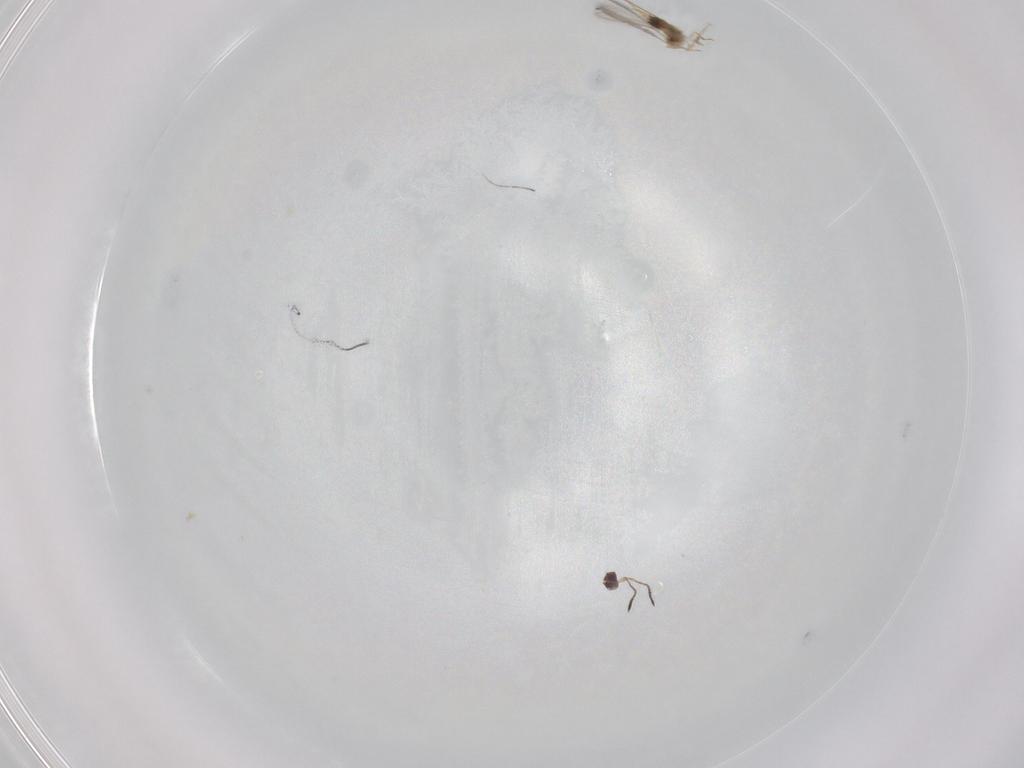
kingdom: Animalia
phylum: Arthropoda
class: Insecta
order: Hymenoptera
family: Mymaridae
